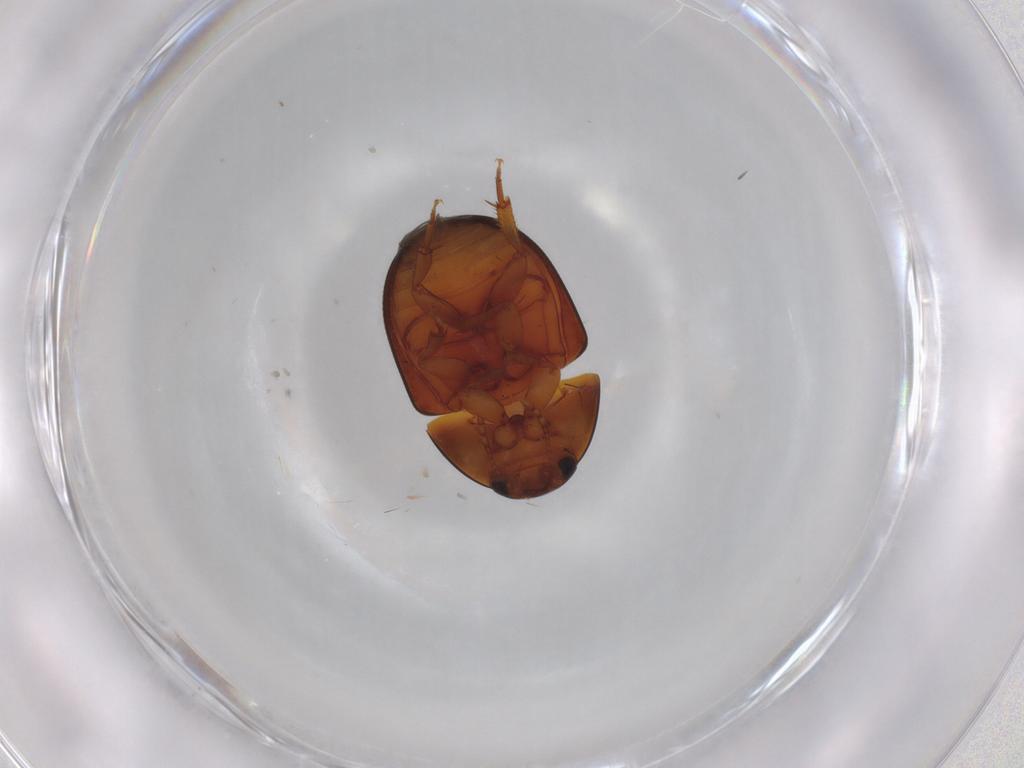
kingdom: Animalia
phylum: Arthropoda
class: Insecta
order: Coleoptera
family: Phalacridae
